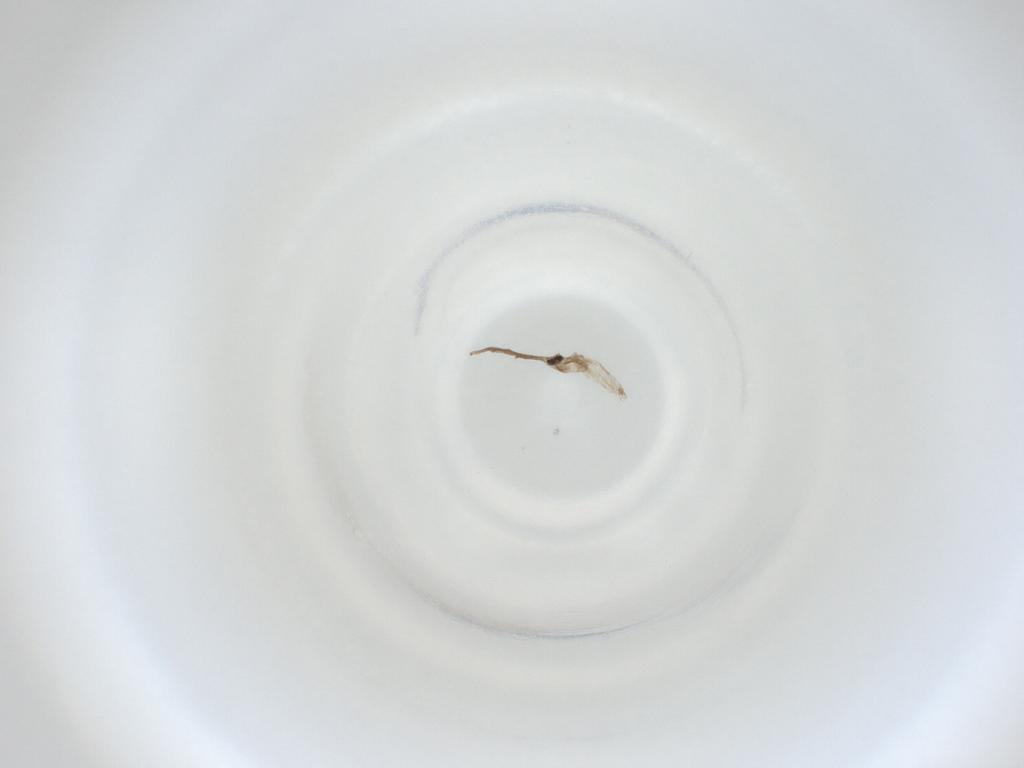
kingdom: Animalia
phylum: Arthropoda
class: Insecta
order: Diptera
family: Cecidomyiidae
